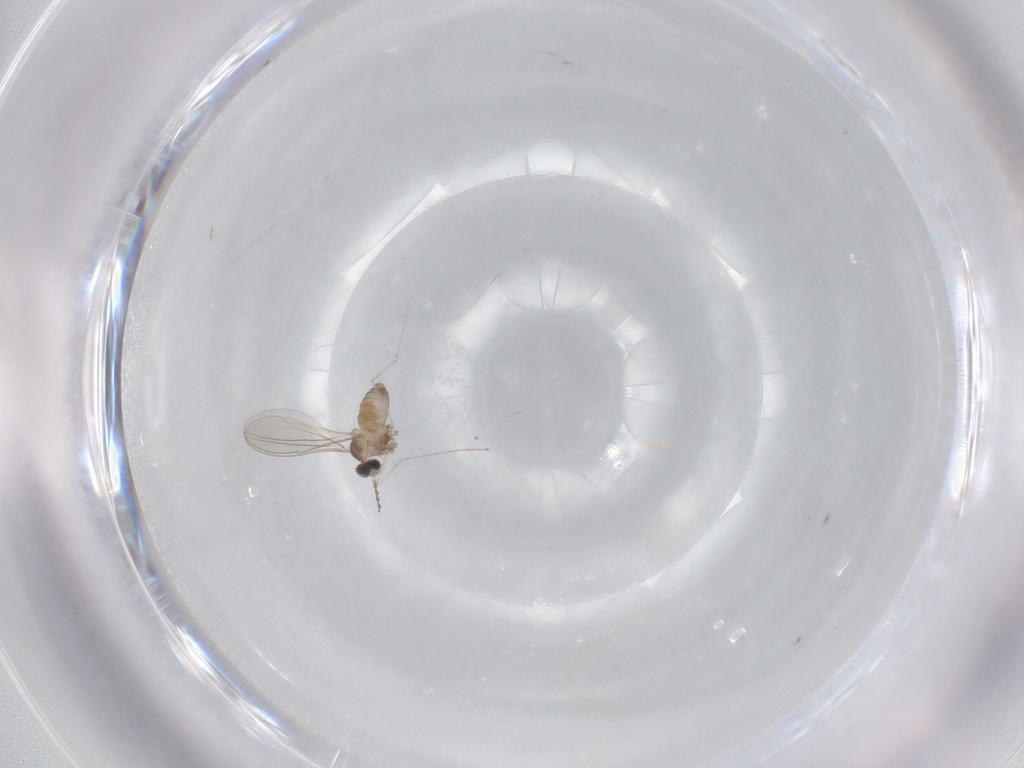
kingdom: Animalia
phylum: Arthropoda
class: Insecta
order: Diptera
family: Cecidomyiidae
